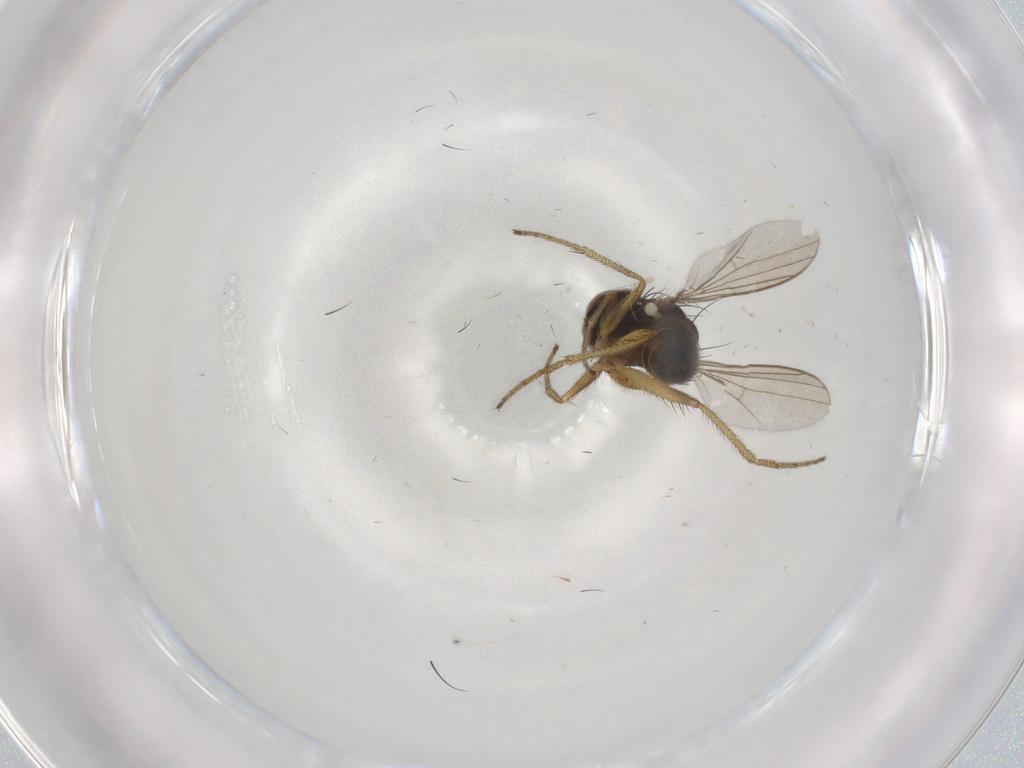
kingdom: Animalia
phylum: Arthropoda
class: Insecta
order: Diptera
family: Dolichopodidae
